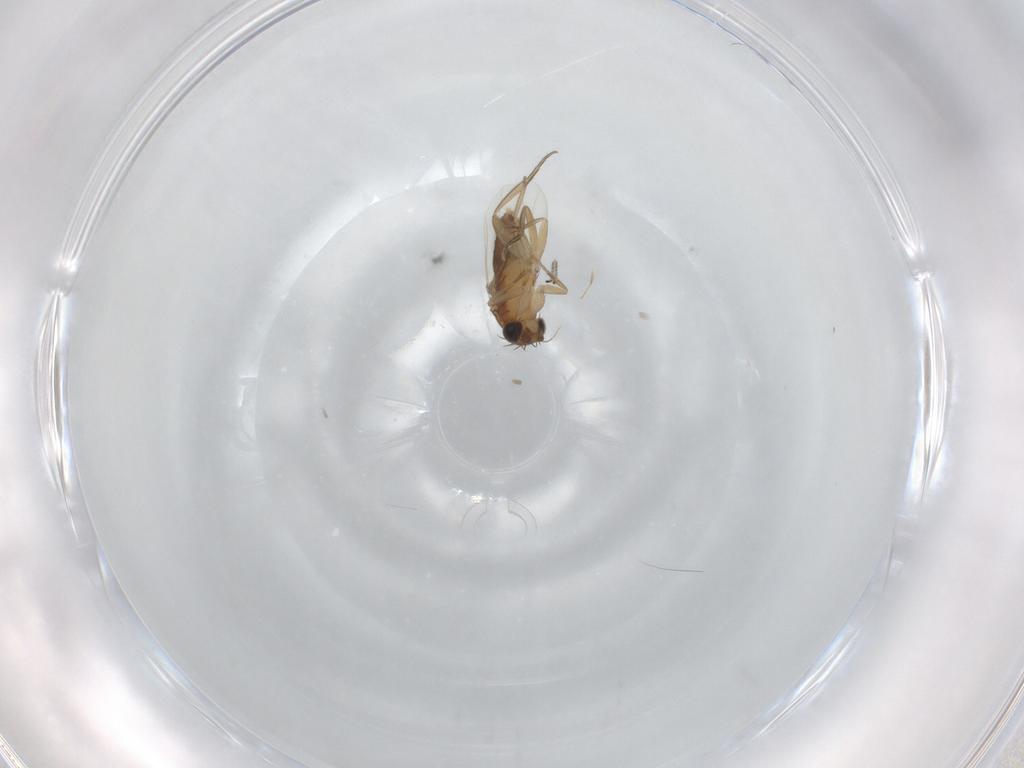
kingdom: Animalia
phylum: Arthropoda
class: Insecta
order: Diptera
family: Phoridae
